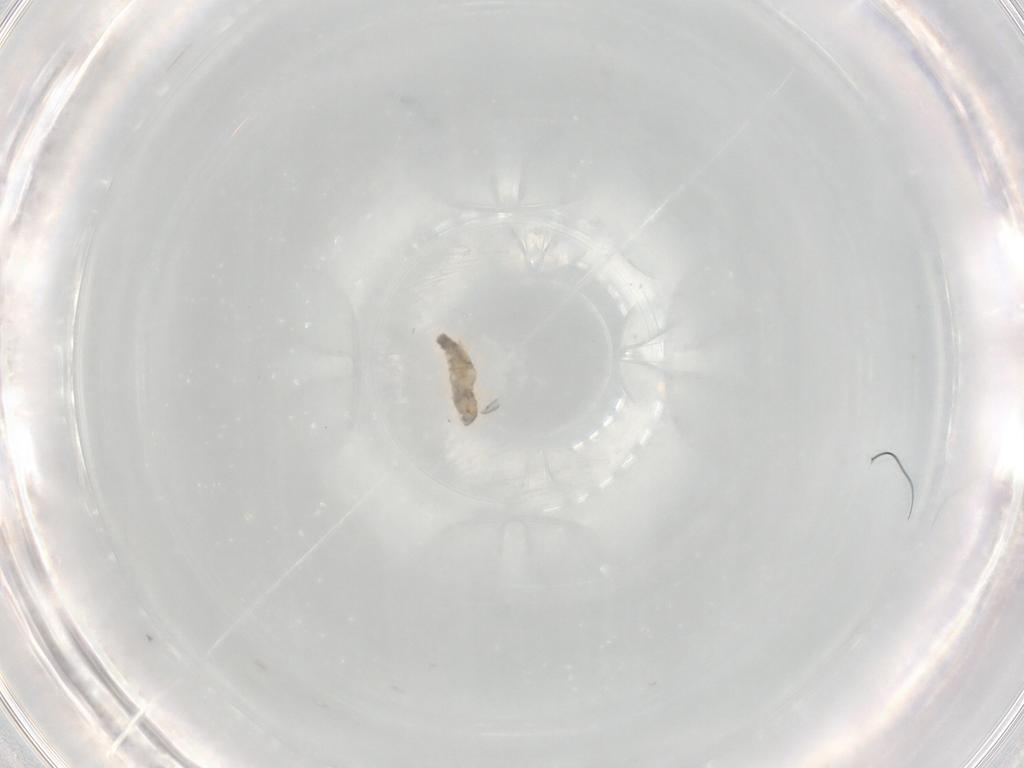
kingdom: Animalia
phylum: Arthropoda
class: Insecta
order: Diptera
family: Cecidomyiidae
